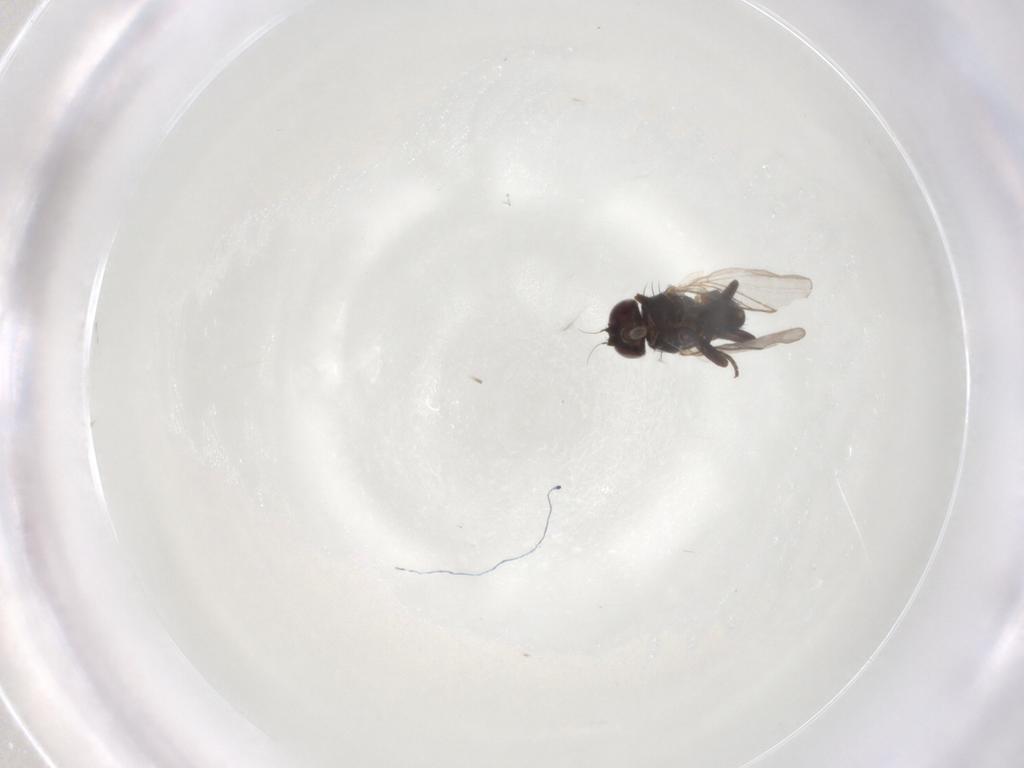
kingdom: Animalia
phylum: Arthropoda
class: Insecta
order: Diptera
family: Agromyzidae
